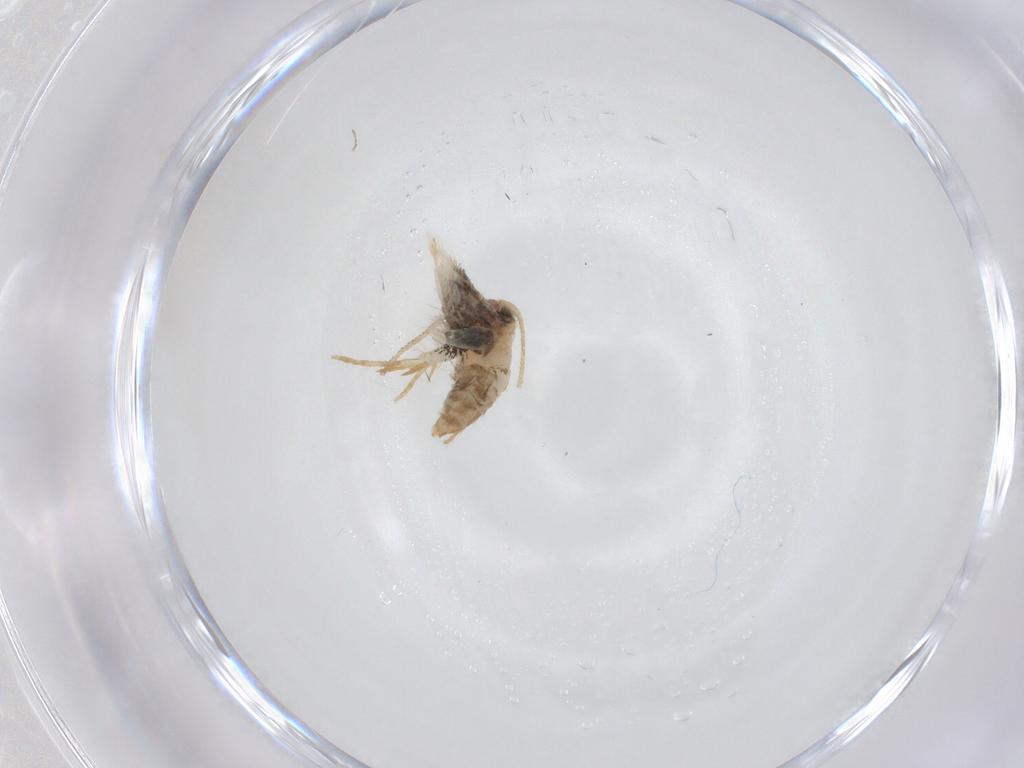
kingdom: Animalia
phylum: Arthropoda
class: Insecta
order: Lepidoptera
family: Nepticulidae
